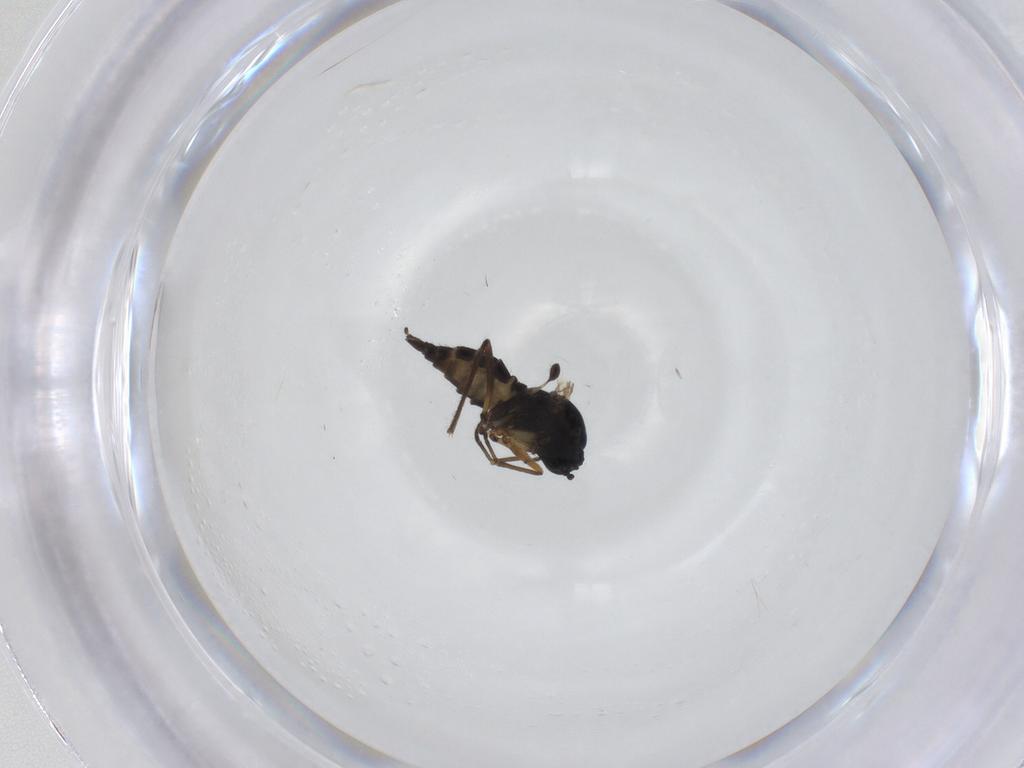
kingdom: Animalia
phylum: Arthropoda
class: Insecta
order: Diptera
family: Sciaridae
